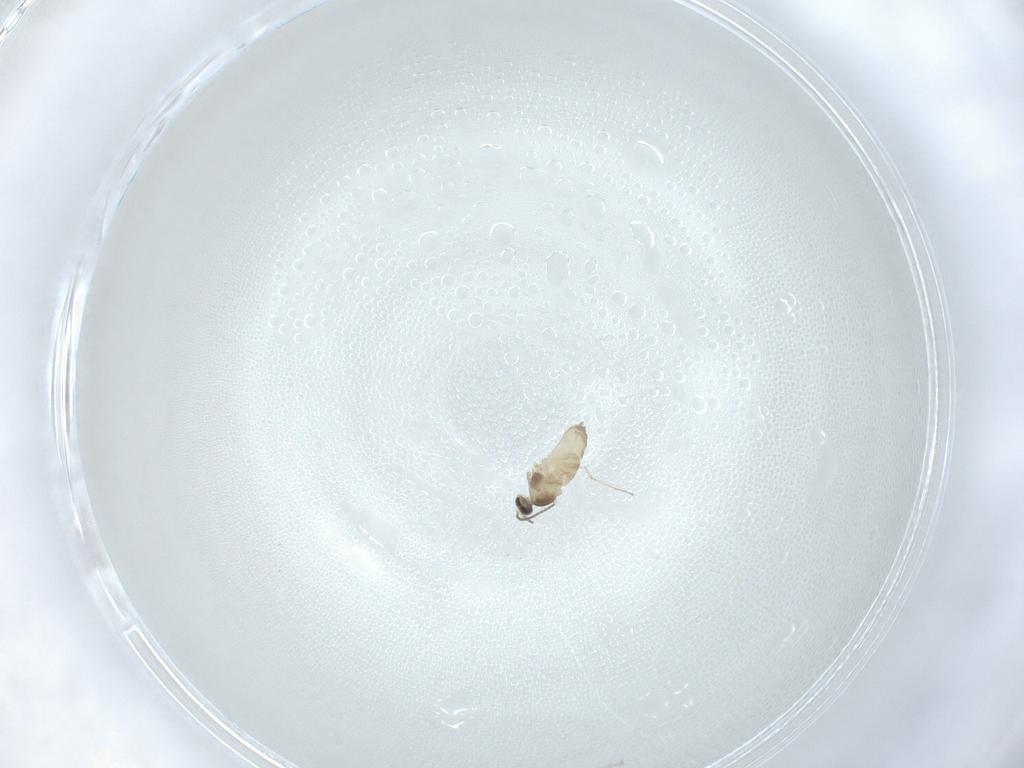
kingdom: Animalia
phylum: Arthropoda
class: Insecta
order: Diptera
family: Cecidomyiidae
